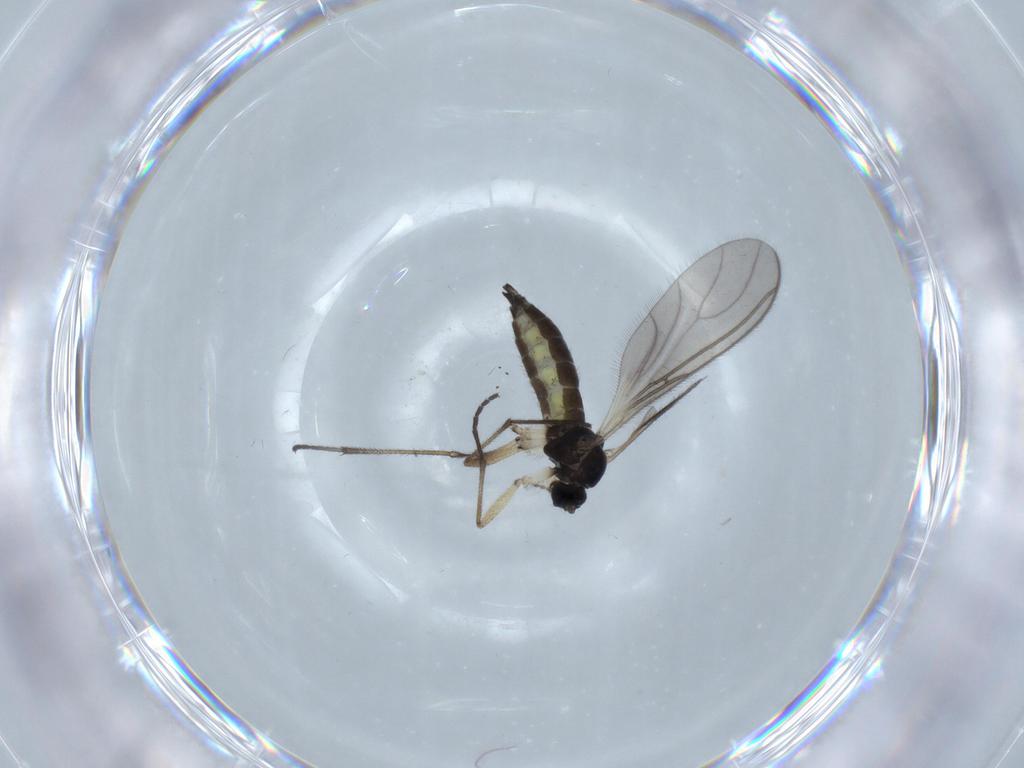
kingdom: Animalia
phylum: Arthropoda
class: Insecta
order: Diptera
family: Sciaridae
